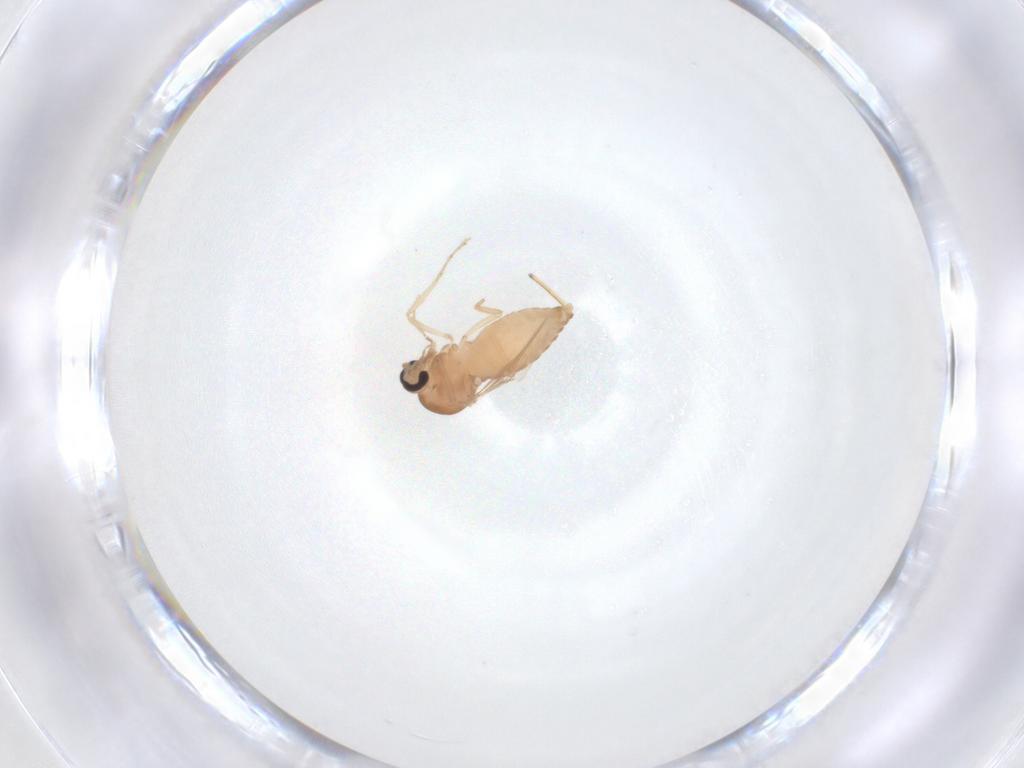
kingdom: Animalia
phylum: Arthropoda
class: Insecta
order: Diptera
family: Ceratopogonidae
